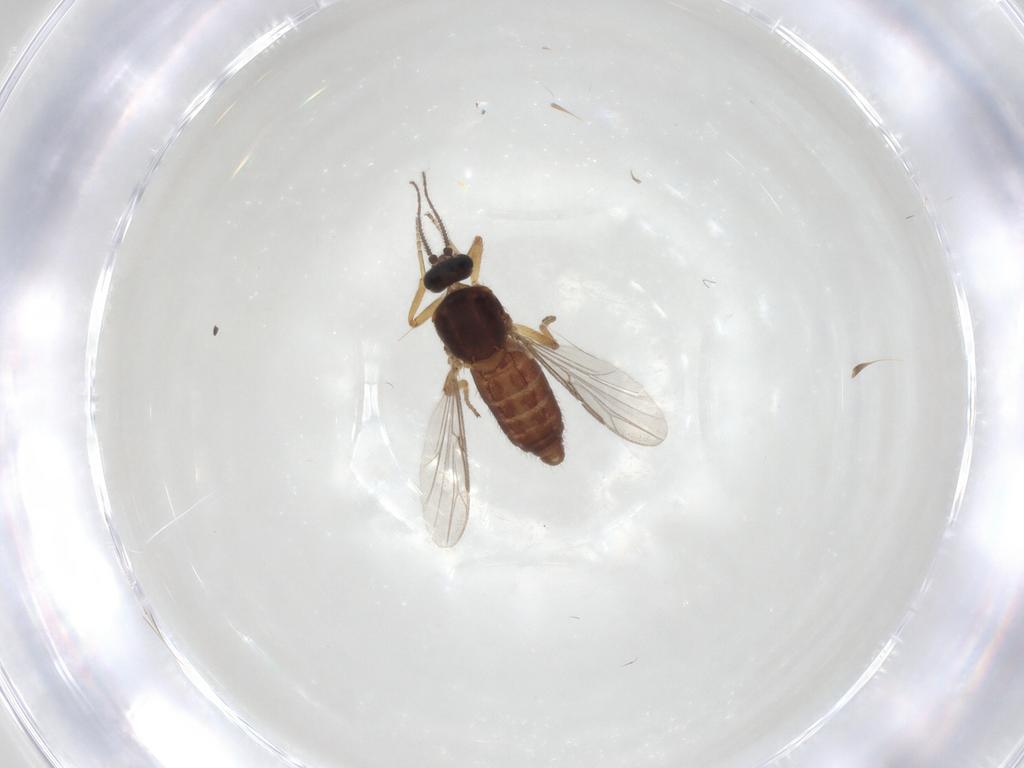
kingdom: Animalia
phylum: Arthropoda
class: Insecta
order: Diptera
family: Ceratopogonidae
